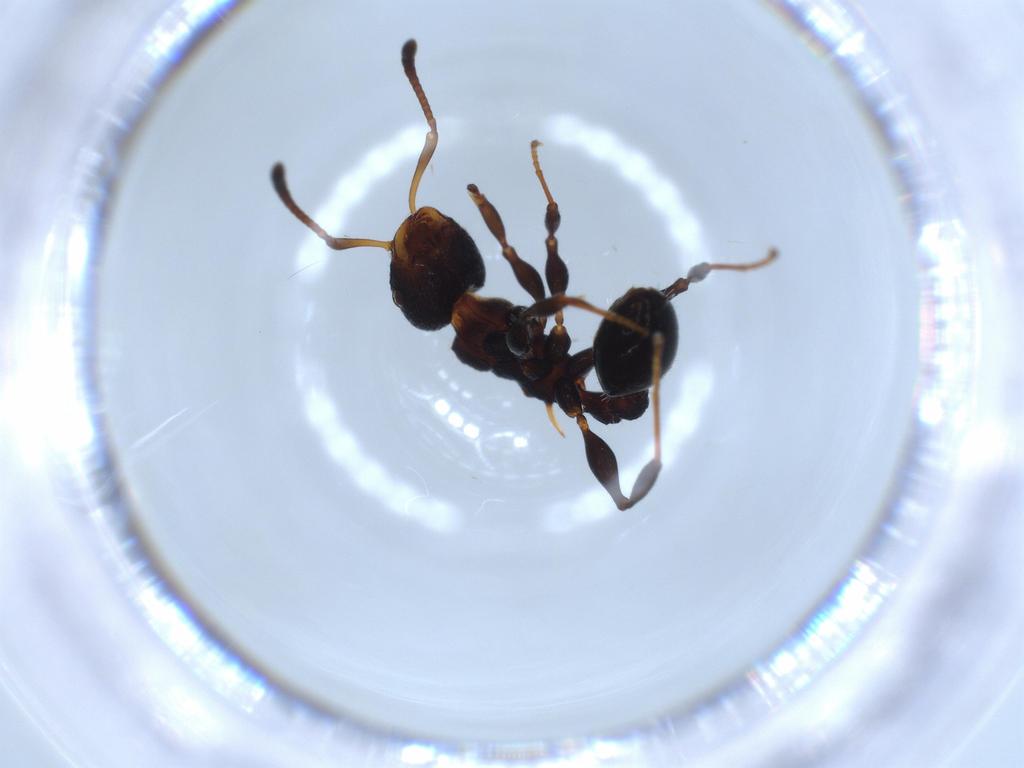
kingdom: Animalia
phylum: Arthropoda
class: Insecta
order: Hymenoptera
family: Formicidae
